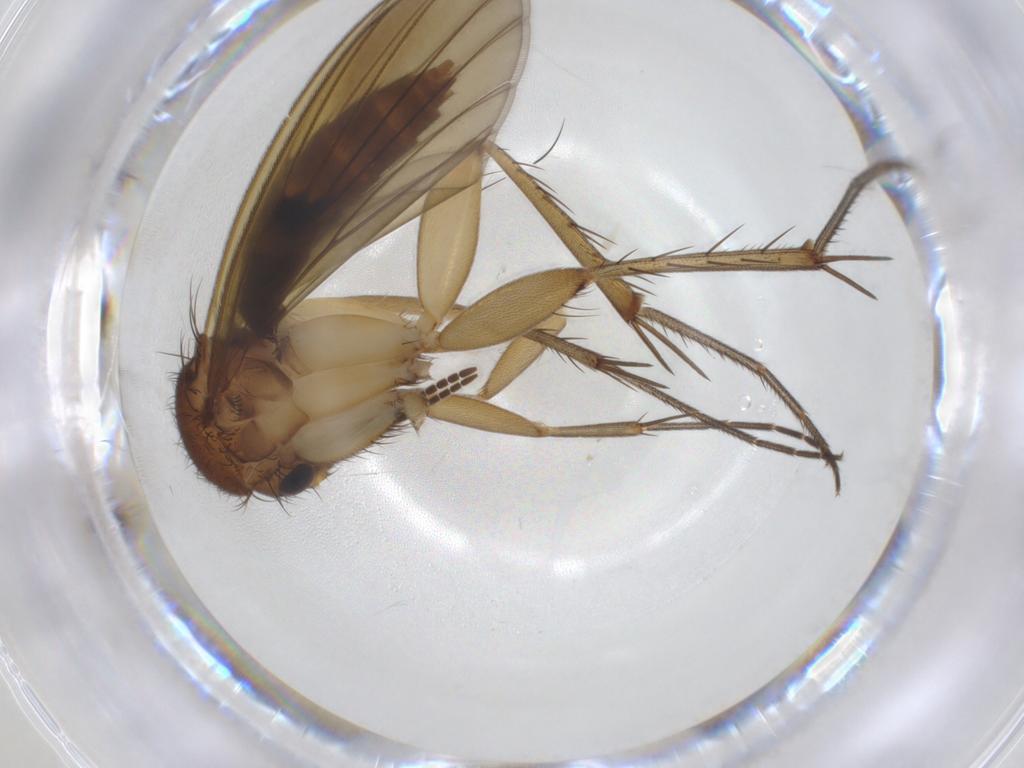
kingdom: Animalia
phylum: Arthropoda
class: Insecta
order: Diptera
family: Mycetophilidae
